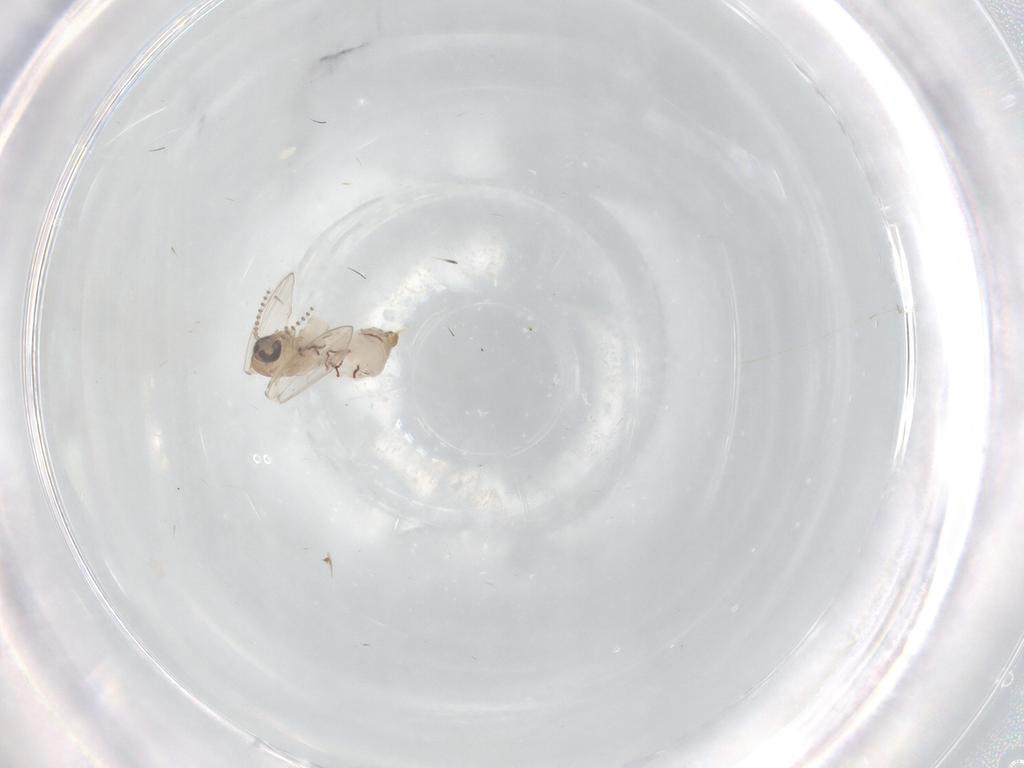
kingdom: Animalia
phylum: Arthropoda
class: Insecta
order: Diptera
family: Psychodidae
